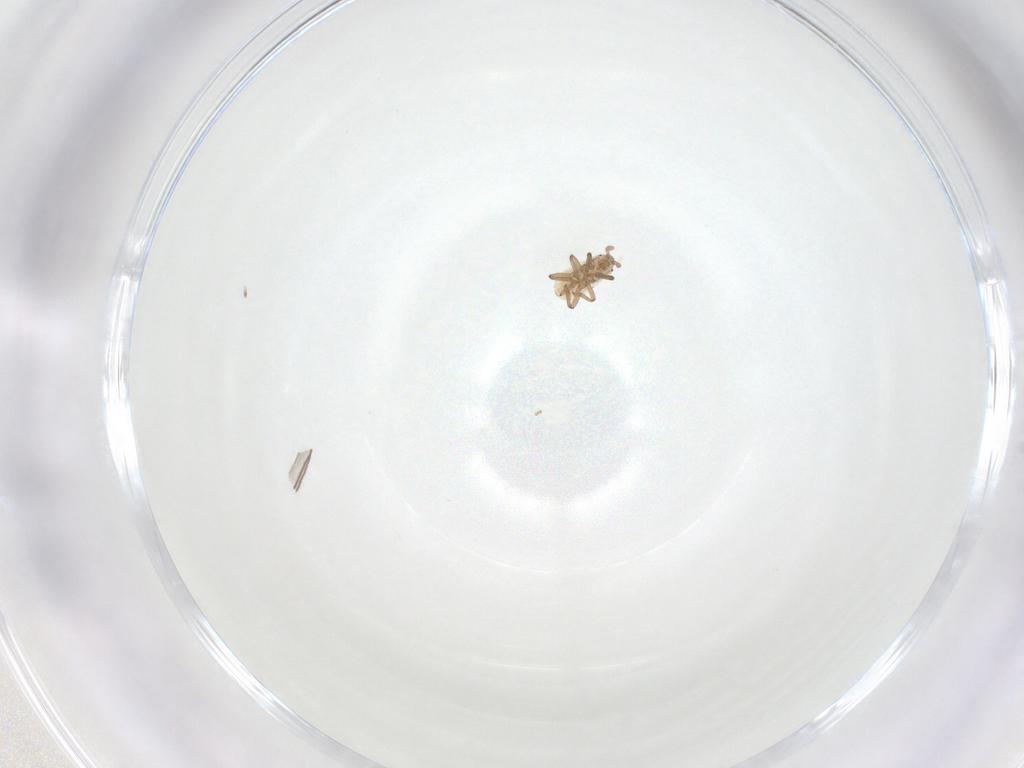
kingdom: Animalia
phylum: Arthropoda
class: Insecta
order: Hemiptera
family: Aphididae
